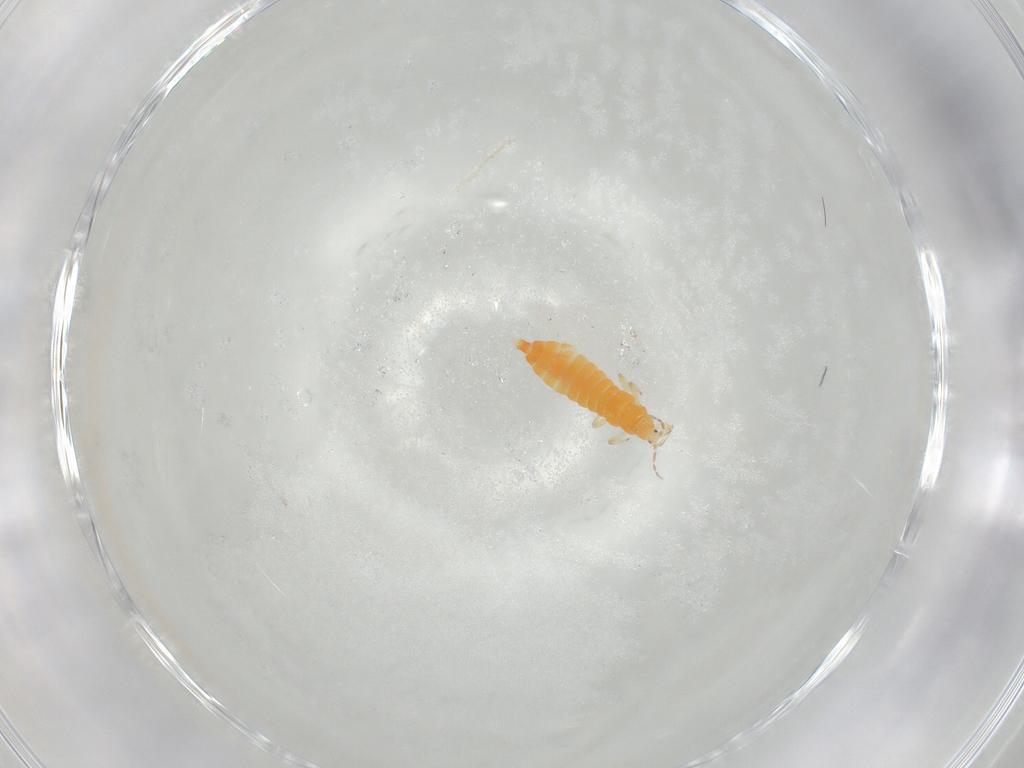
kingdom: Animalia
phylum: Arthropoda
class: Insecta
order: Thysanoptera
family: Aeolothripidae
